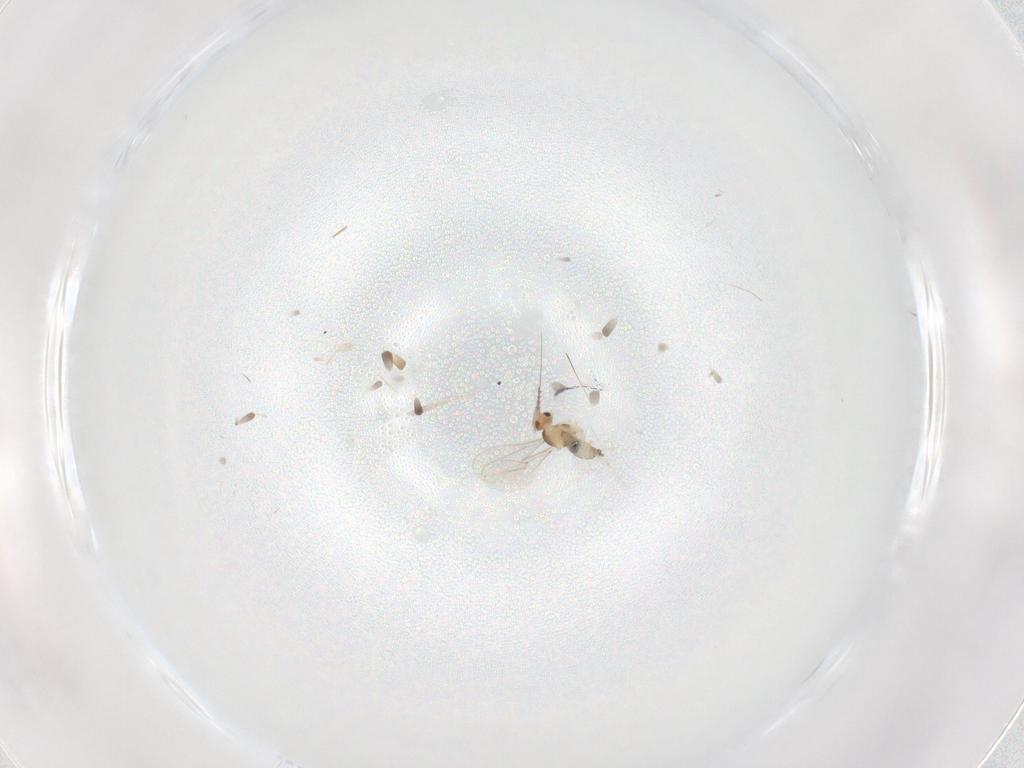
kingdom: Animalia
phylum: Arthropoda
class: Insecta
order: Diptera
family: Cecidomyiidae
